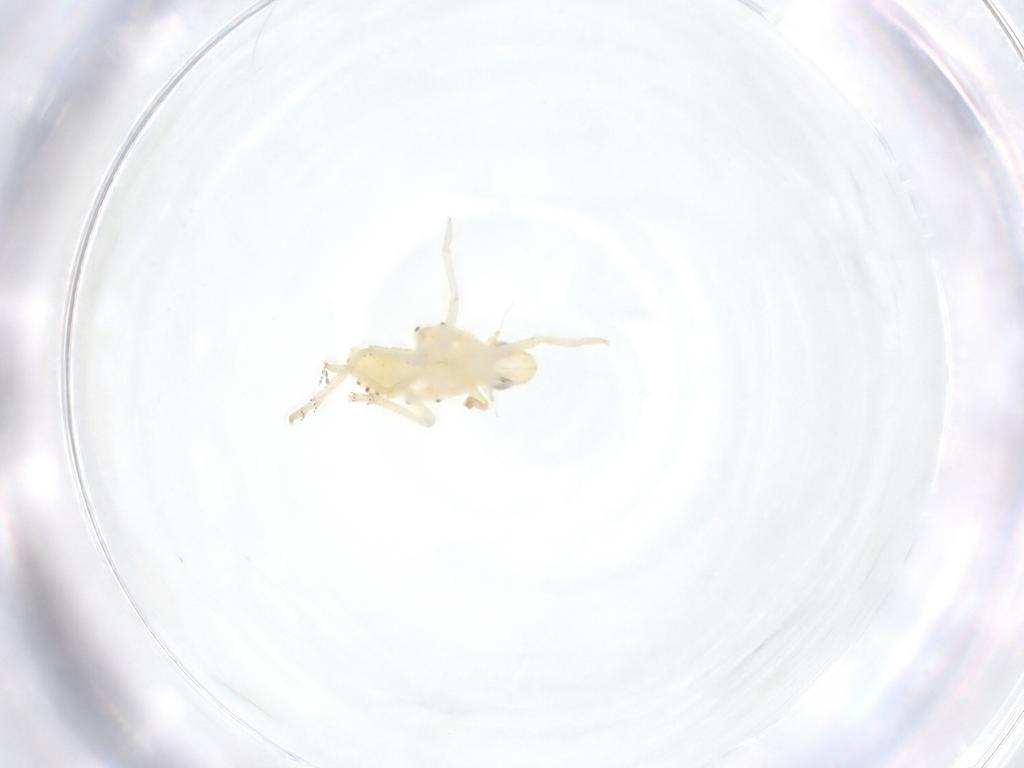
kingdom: Animalia
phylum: Arthropoda
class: Insecta
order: Hemiptera
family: Tropiduchidae
